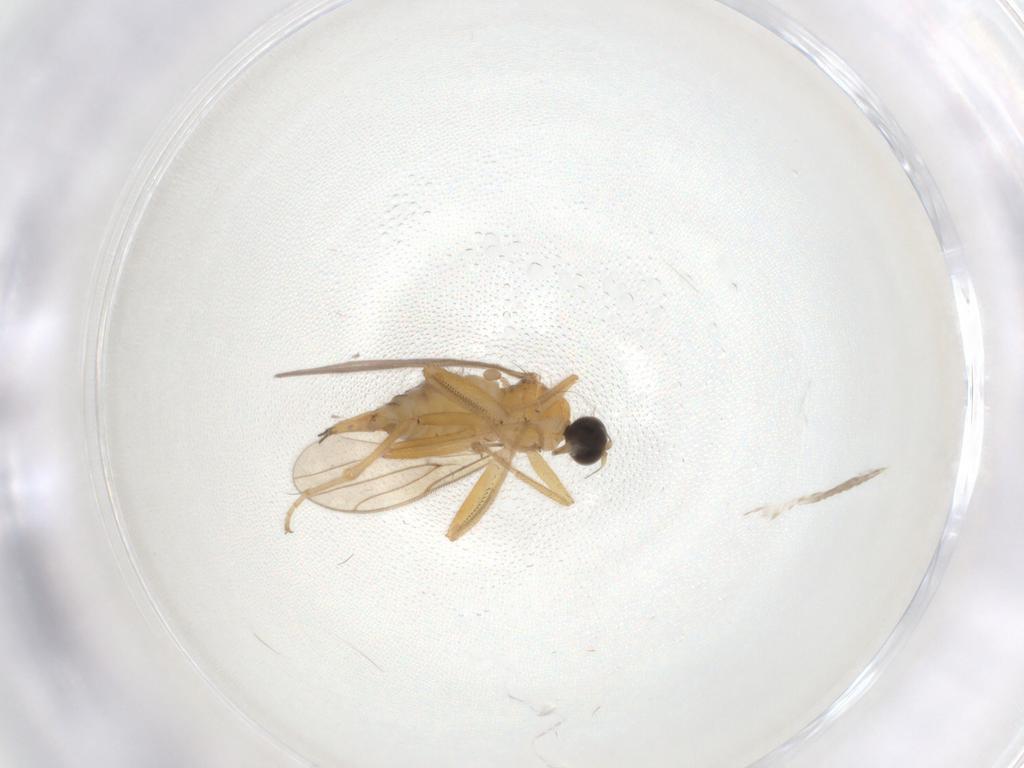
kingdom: Animalia
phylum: Arthropoda
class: Insecta
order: Diptera
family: Hybotidae
